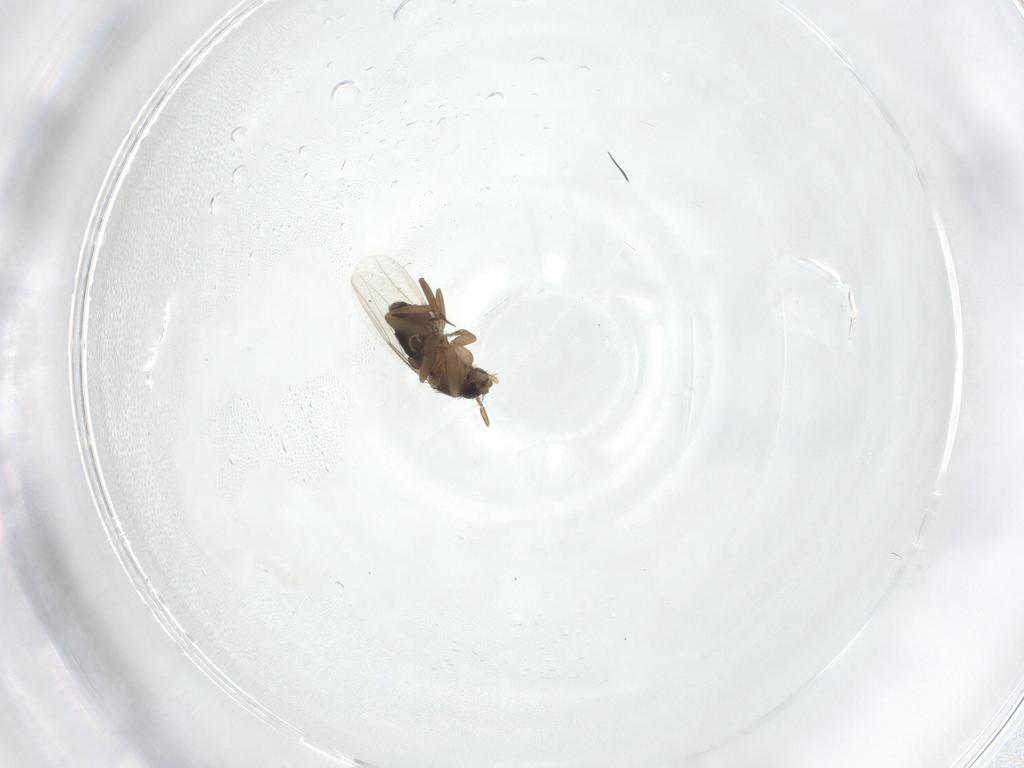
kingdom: Animalia
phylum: Arthropoda
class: Insecta
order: Diptera
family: Phoridae
